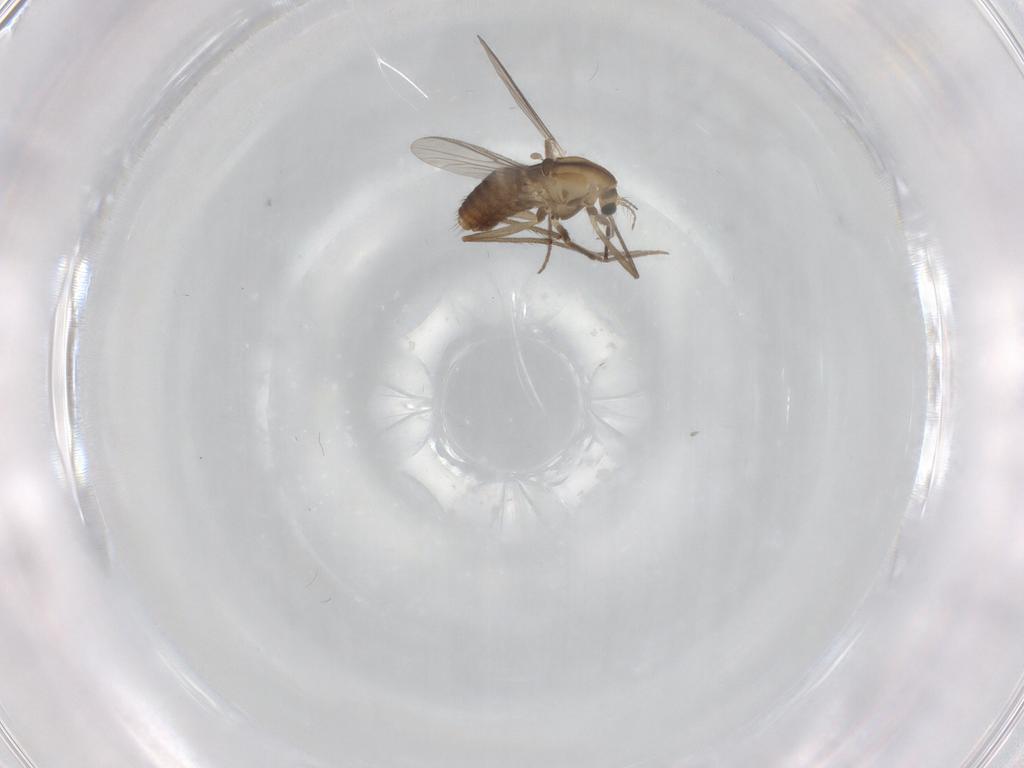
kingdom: Animalia
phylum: Arthropoda
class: Insecta
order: Diptera
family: Chironomidae
